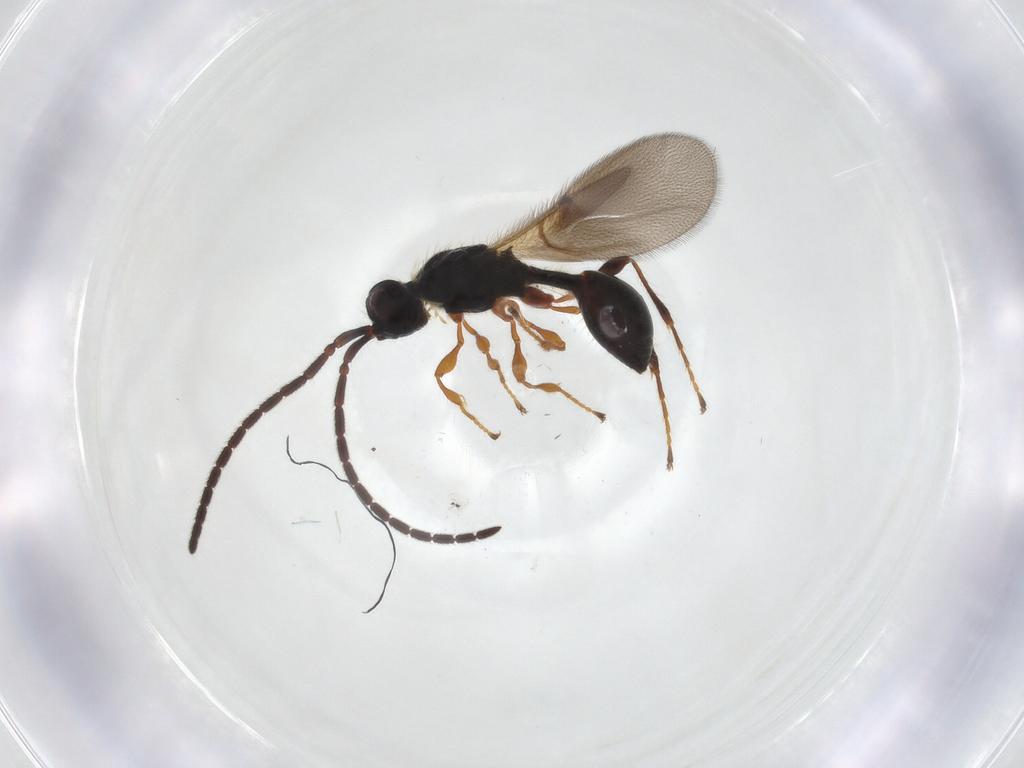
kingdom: Animalia
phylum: Arthropoda
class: Insecta
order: Hymenoptera
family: Diapriidae
